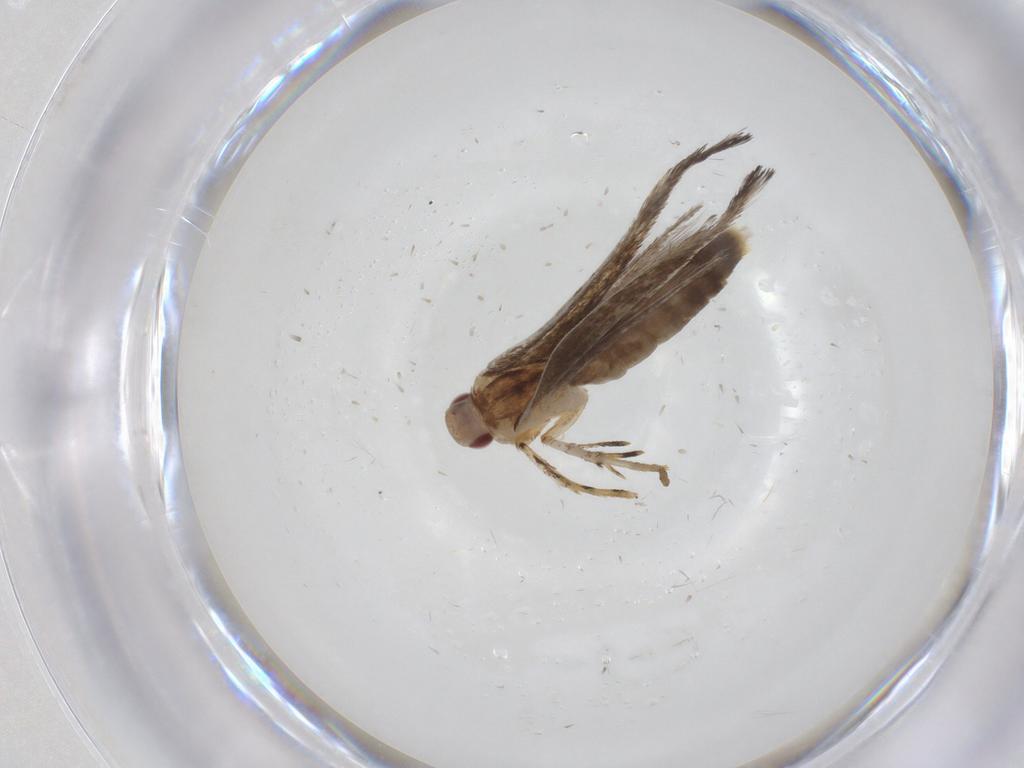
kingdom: Animalia
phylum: Arthropoda
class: Insecta
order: Lepidoptera
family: Cosmopterigidae
